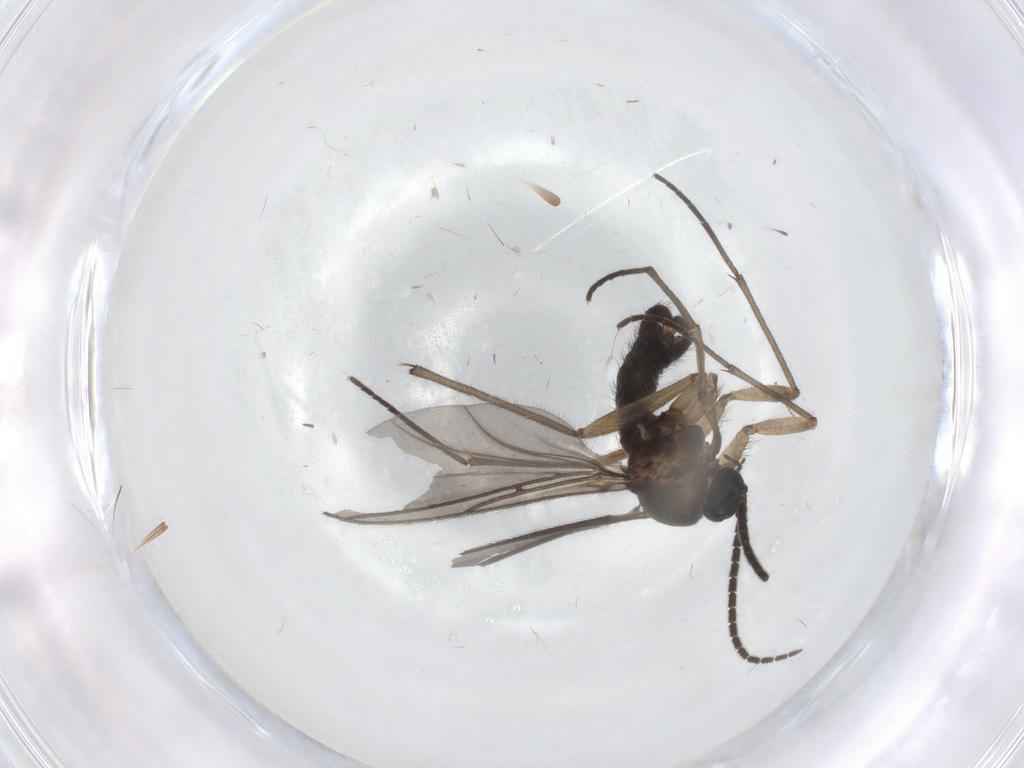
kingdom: Animalia
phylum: Arthropoda
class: Insecta
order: Diptera
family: Sciaridae
